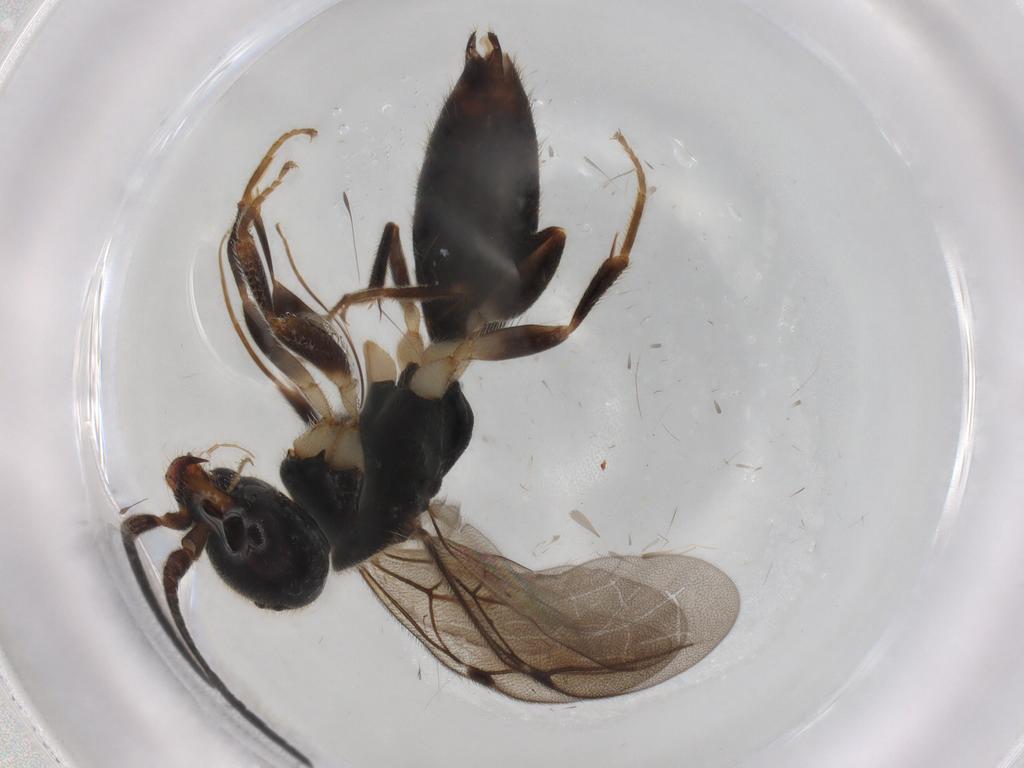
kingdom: Animalia
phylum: Arthropoda
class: Insecta
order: Hymenoptera
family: Bethylidae
